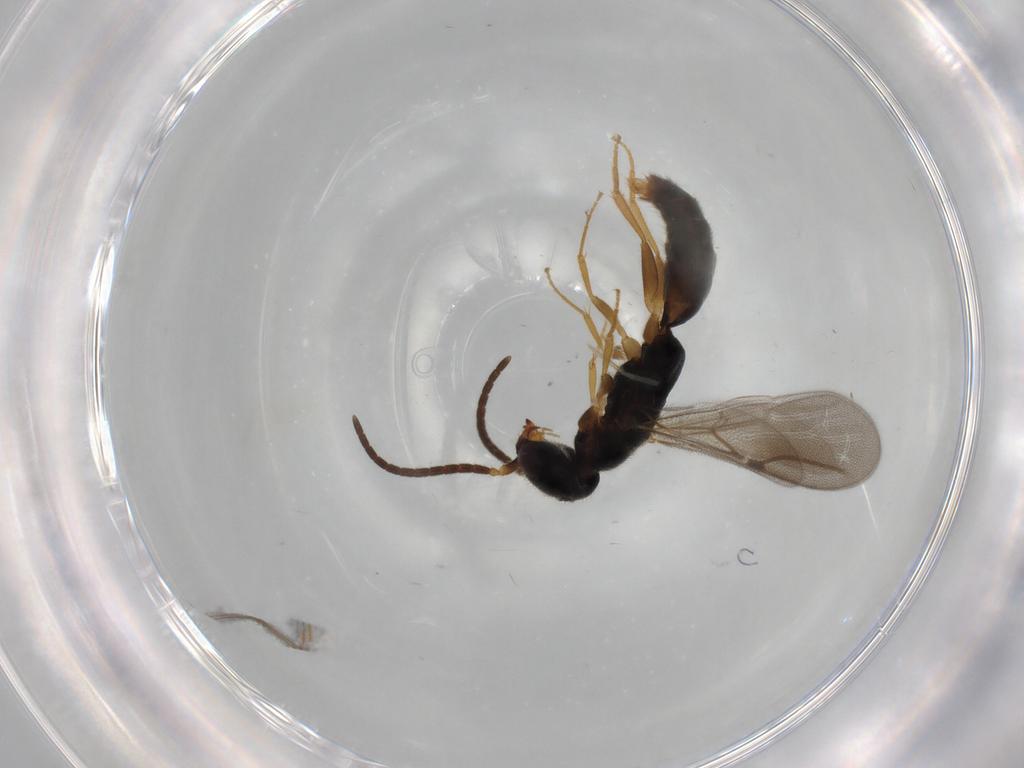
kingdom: Animalia
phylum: Arthropoda
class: Insecta
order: Hymenoptera
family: Bethylidae
